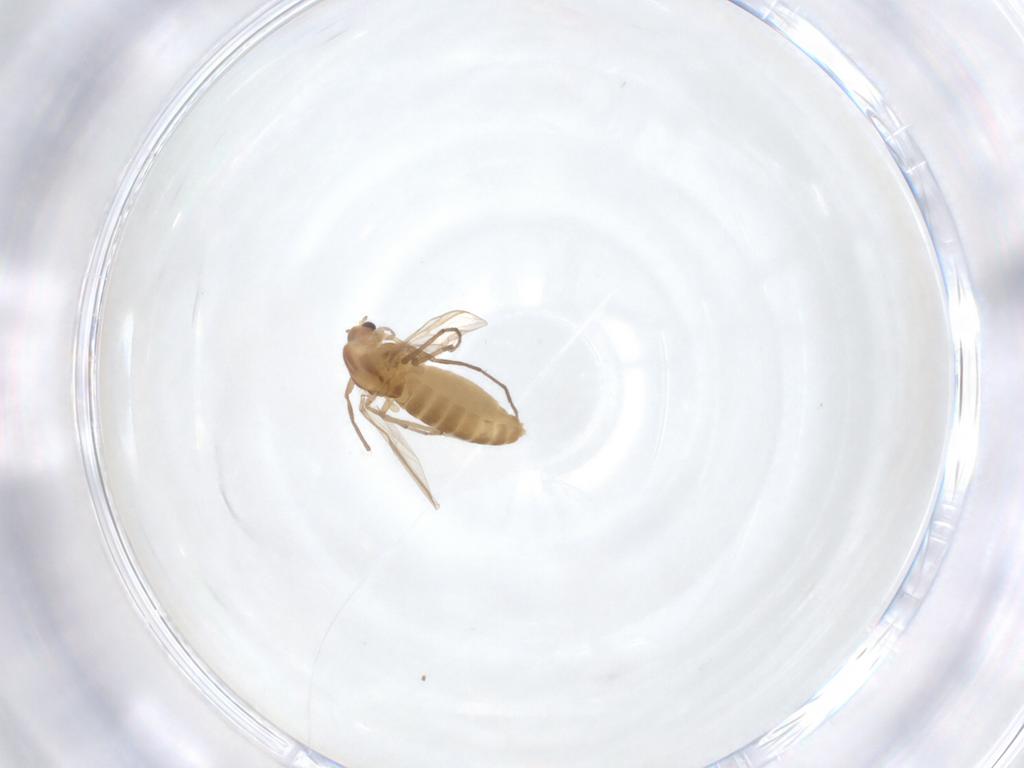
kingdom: Animalia
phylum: Arthropoda
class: Insecta
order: Diptera
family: Chironomidae
